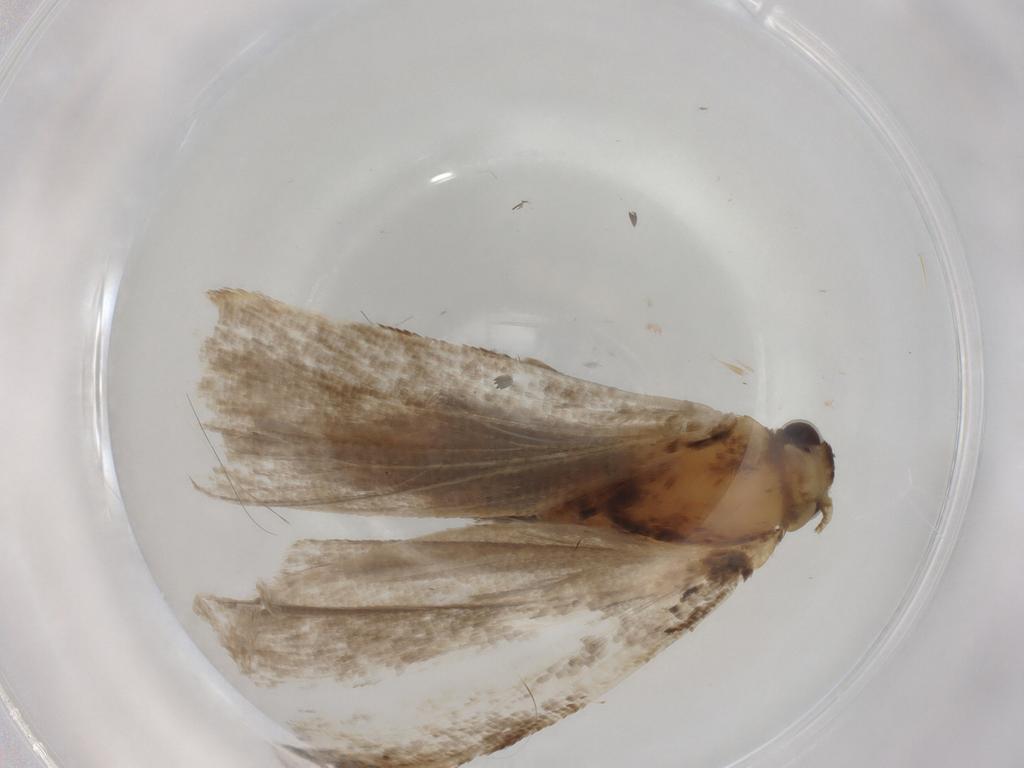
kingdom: Animalia
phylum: Arthropoda
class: Insecta
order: Lepidoptera
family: Erebidae
